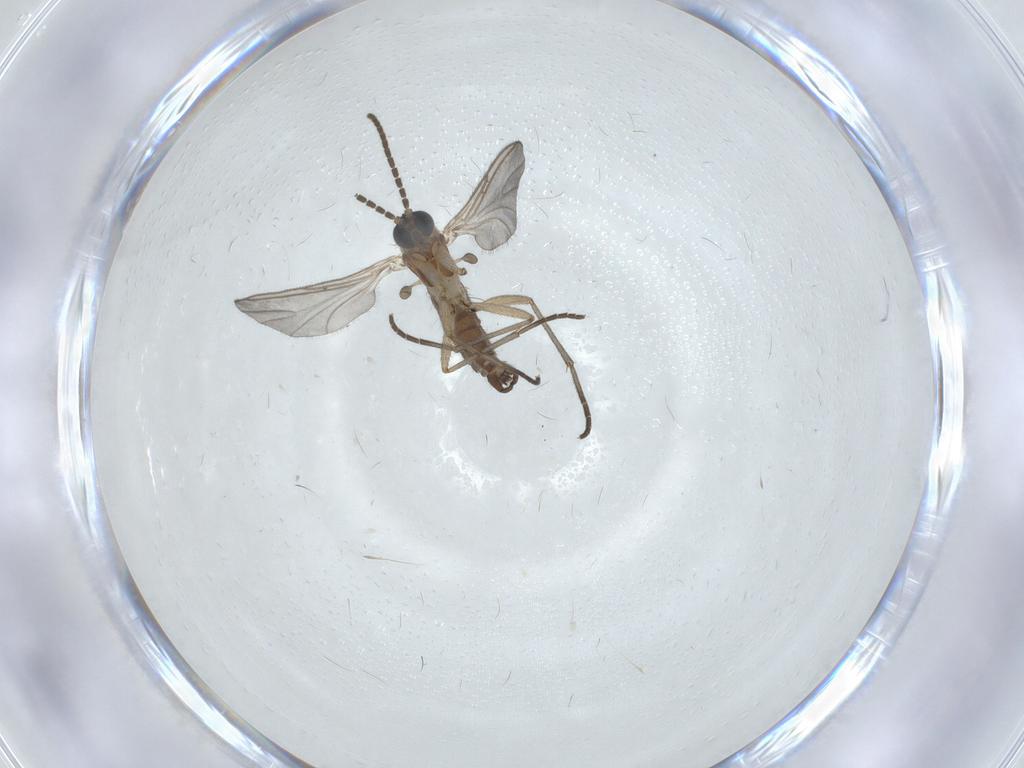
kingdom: Animalia
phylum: Arthropoda
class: Insecta
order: Diptera
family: Sciaridae
